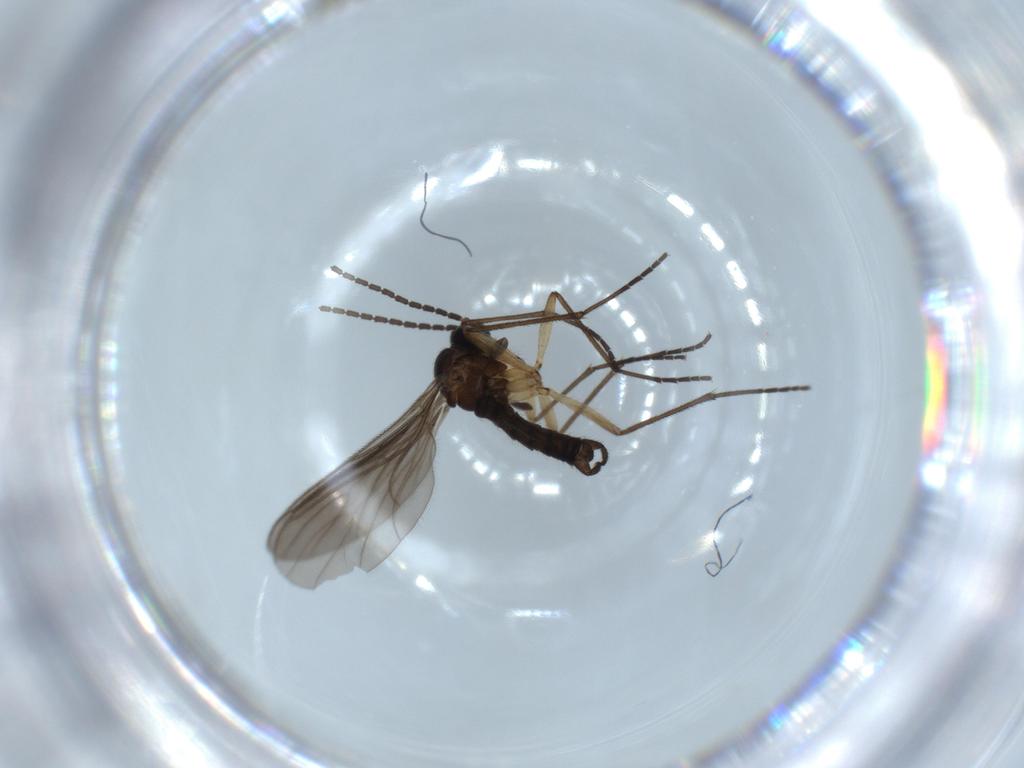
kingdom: Animalia
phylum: Arthropoda
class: Insecta
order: Diptera
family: Sciaridae
